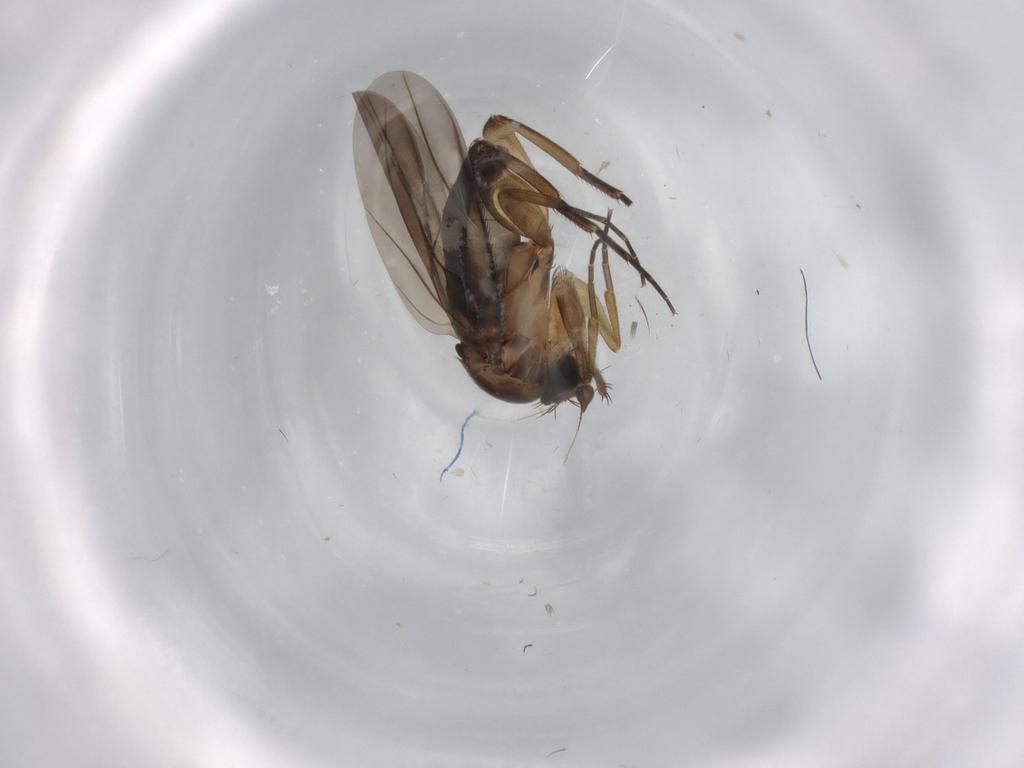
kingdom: Animalia
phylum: Arthropoda
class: Insecta
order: Diptera
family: Phoridae
